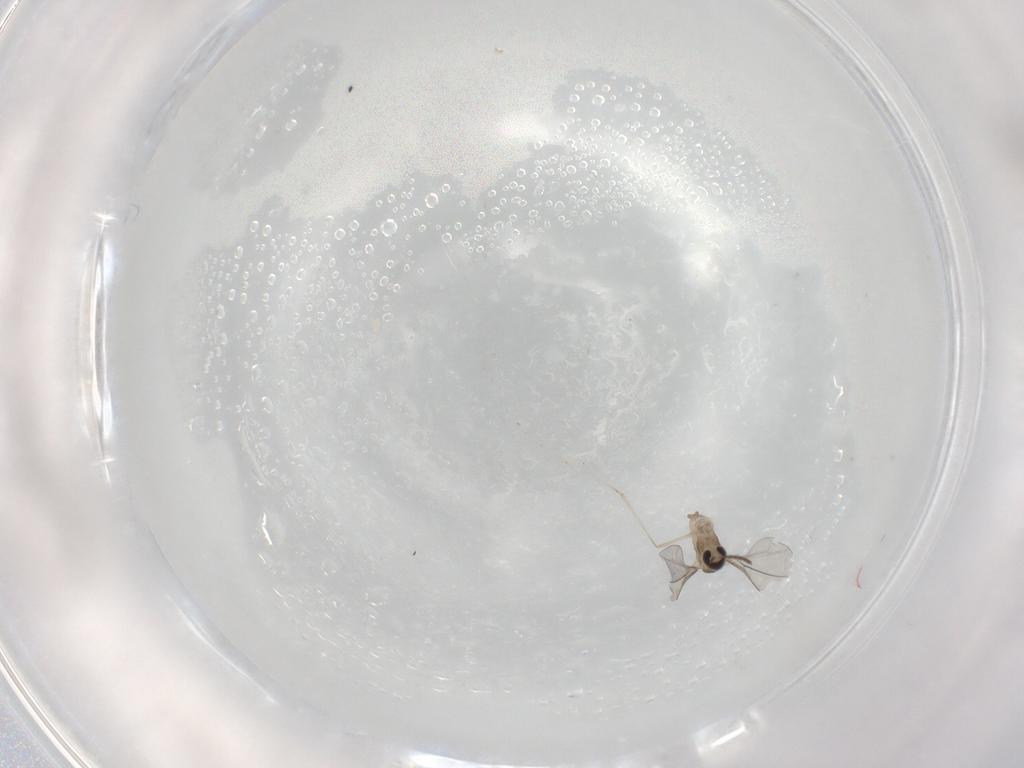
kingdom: Animalia
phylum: Arthropoda
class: Insecta
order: Diptera
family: Cecidomyiidae
